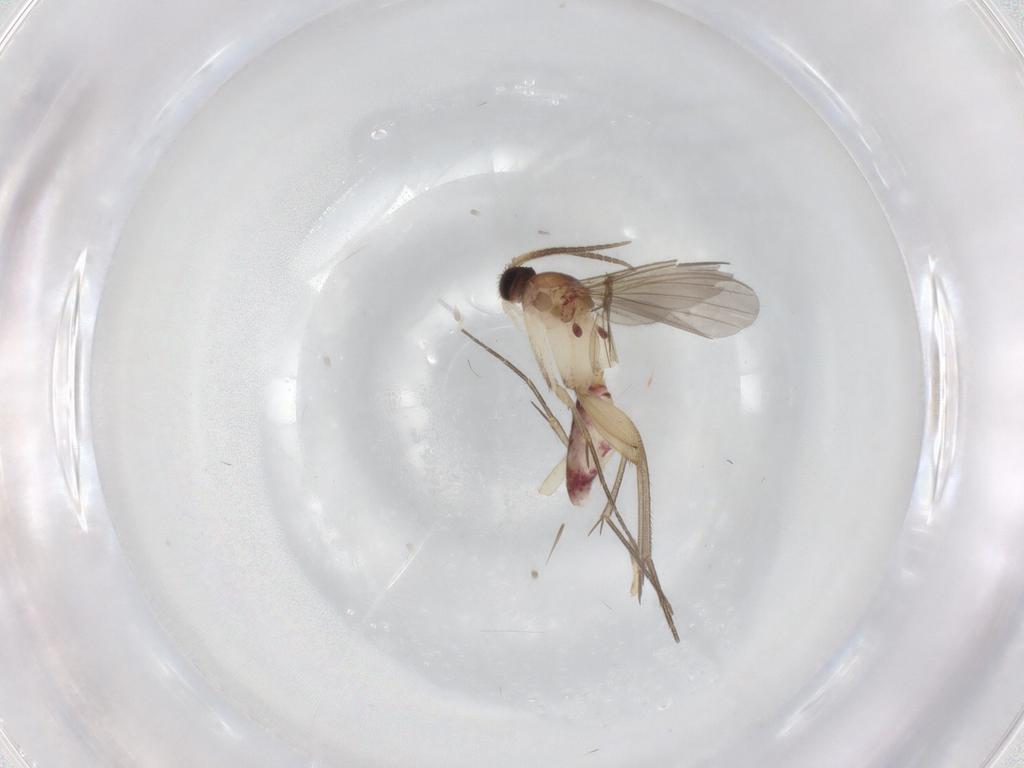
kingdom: Animalia
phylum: Arthropoda
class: Insecta
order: Diptera
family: Mycetophilidae
